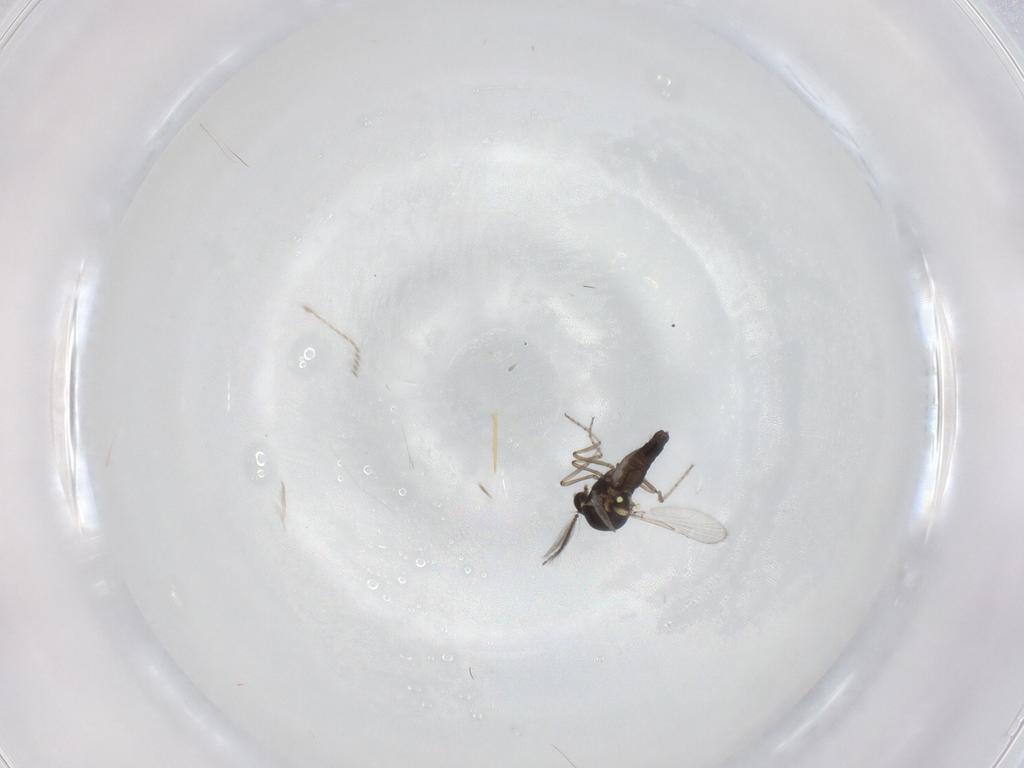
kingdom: Animalia
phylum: Arthropoda
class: Insecta
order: Diptera
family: Ceratopogonidae
